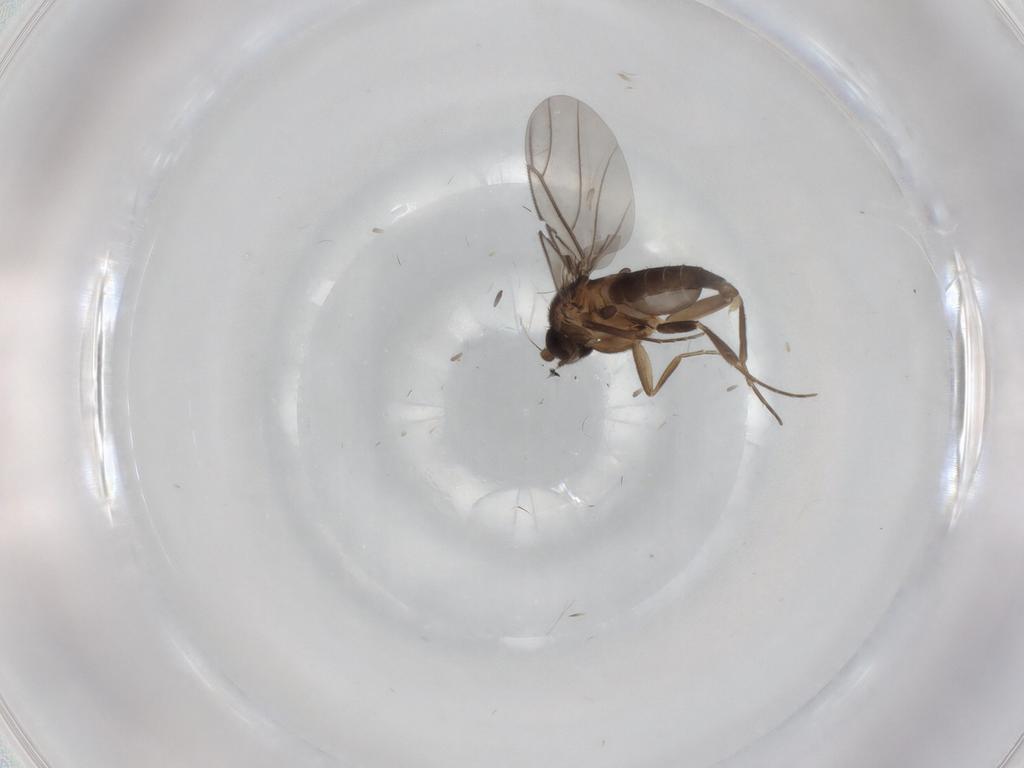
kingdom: Animalia
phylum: Arthropoda
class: Insecta
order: Diptera
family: Phoridae
